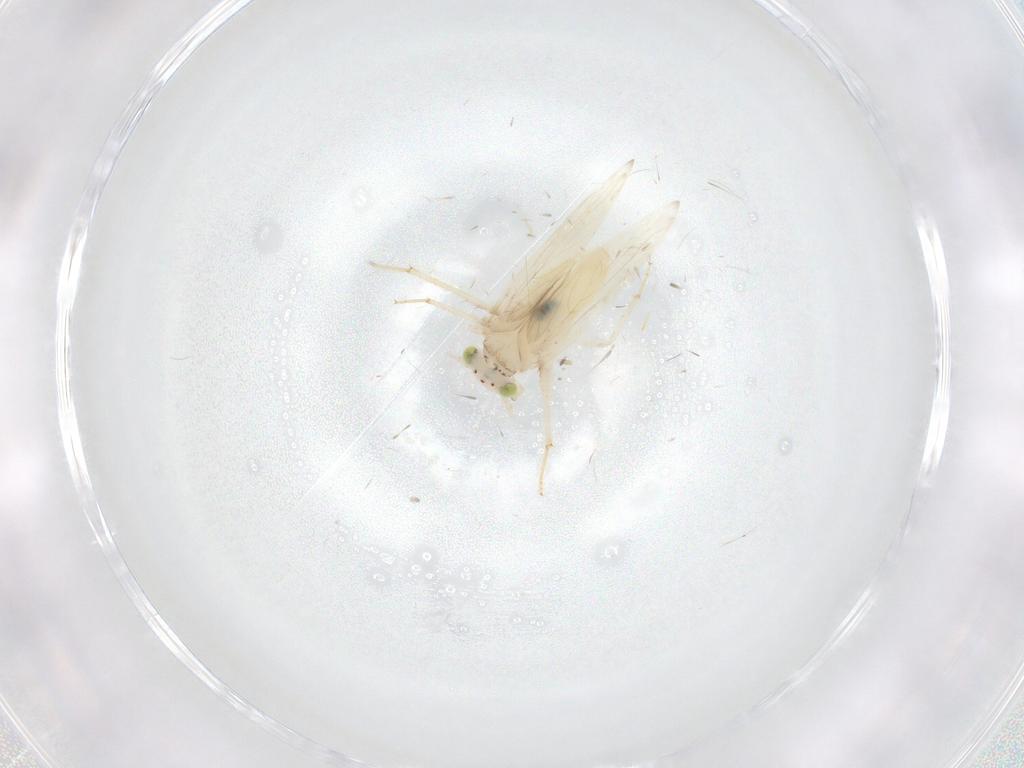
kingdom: Animalia
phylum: Arthropoda
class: Insecta
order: Psocodea
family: Lepidopsocidae
